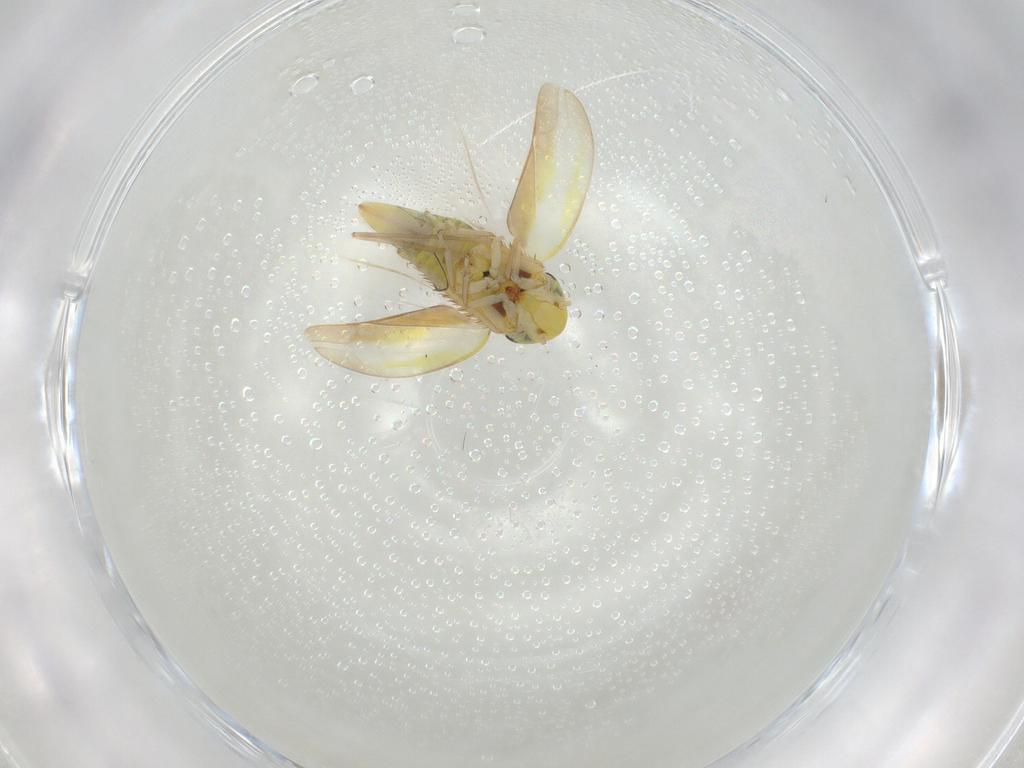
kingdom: Animalia
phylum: Arthropoda
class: Insecta
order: Hemiptera
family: Cicadellidae
